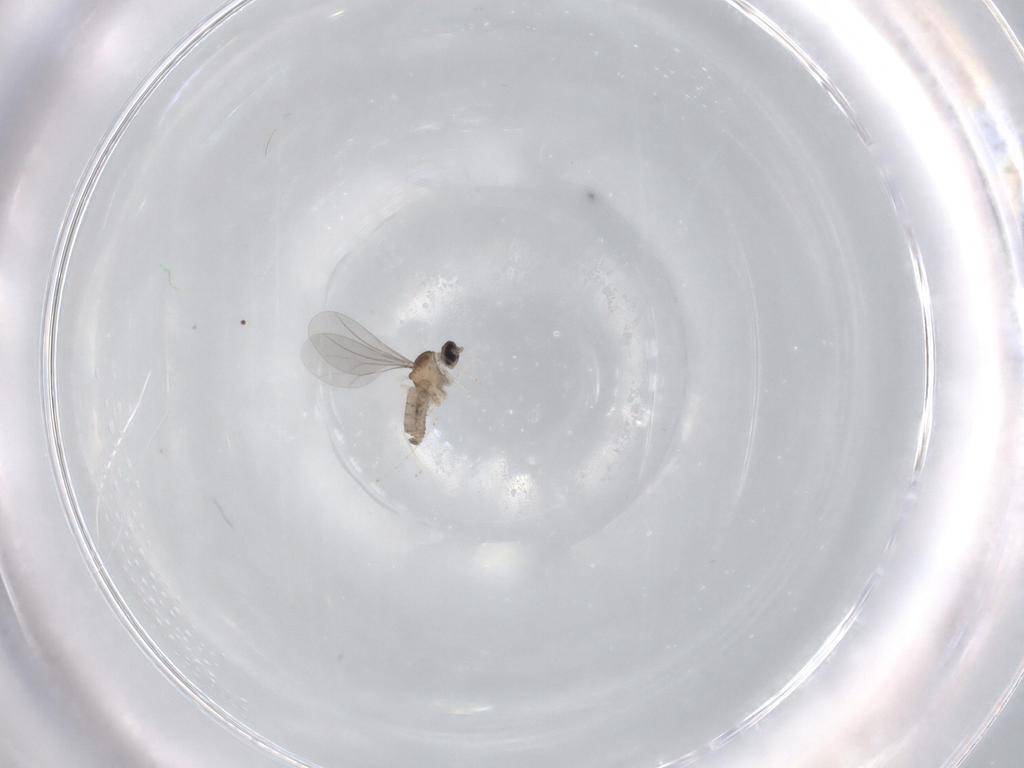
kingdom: Animalia
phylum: Arthropoda
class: Insecta
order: Diptera
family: Cecidomyiidae
